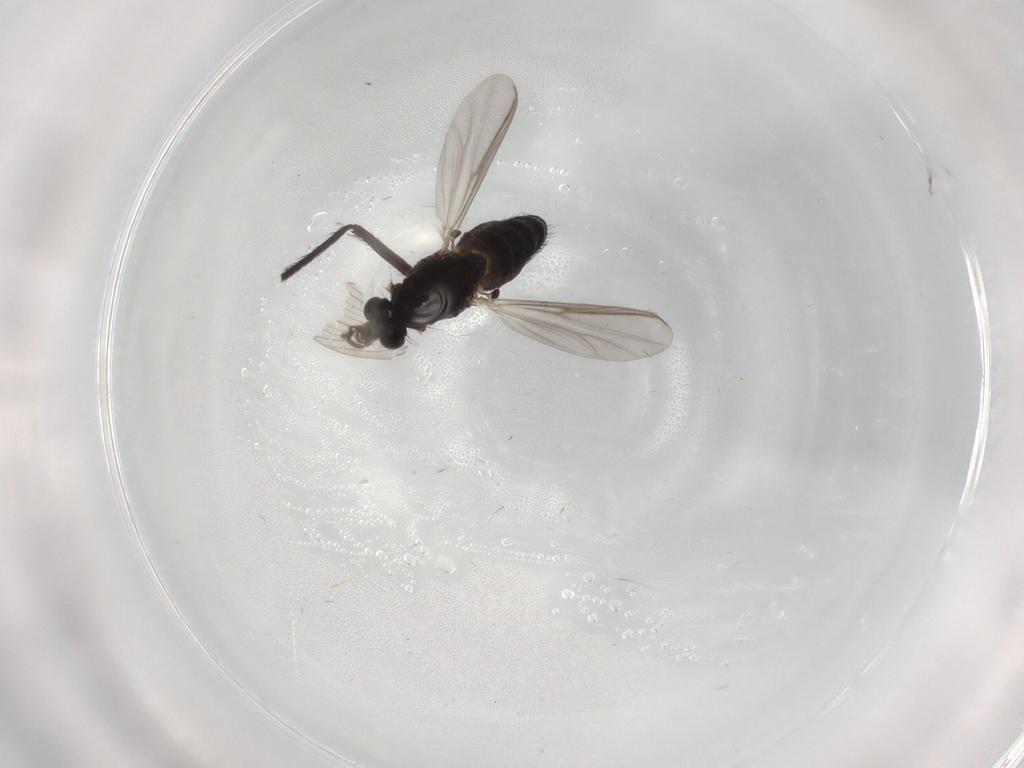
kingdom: Animalia
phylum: Arthropoda
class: Insecta
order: Diptera
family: Chironomidae
